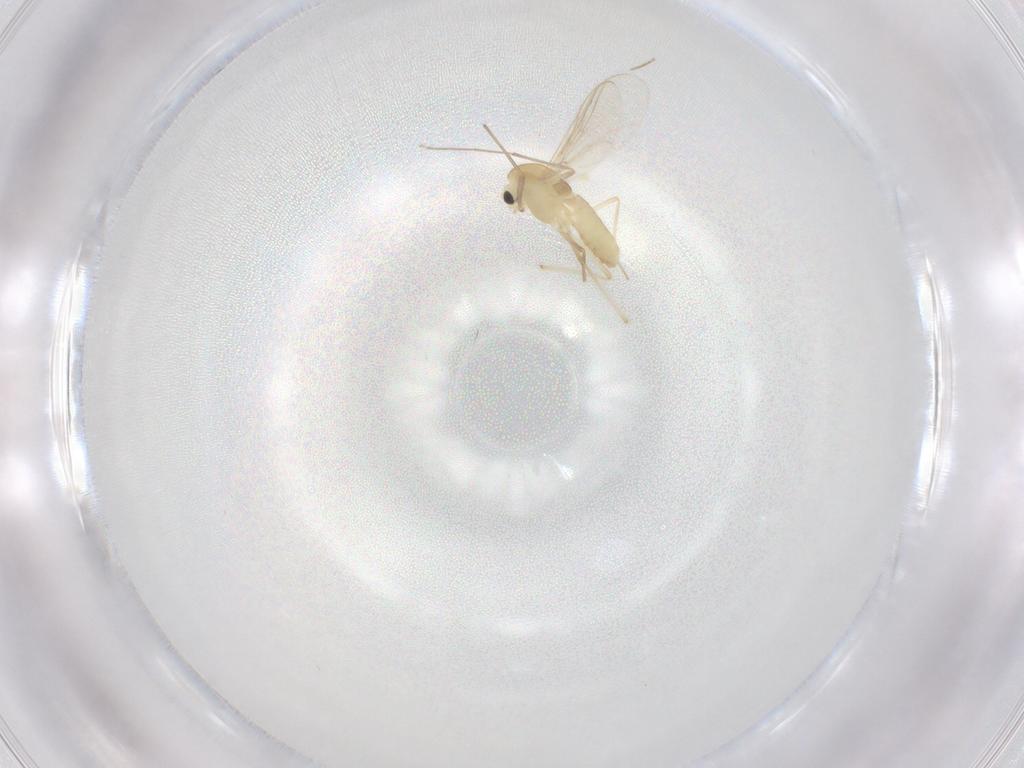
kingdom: Animalia
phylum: Arthropoda
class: Insecta
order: Diptera
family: Chironomidae
